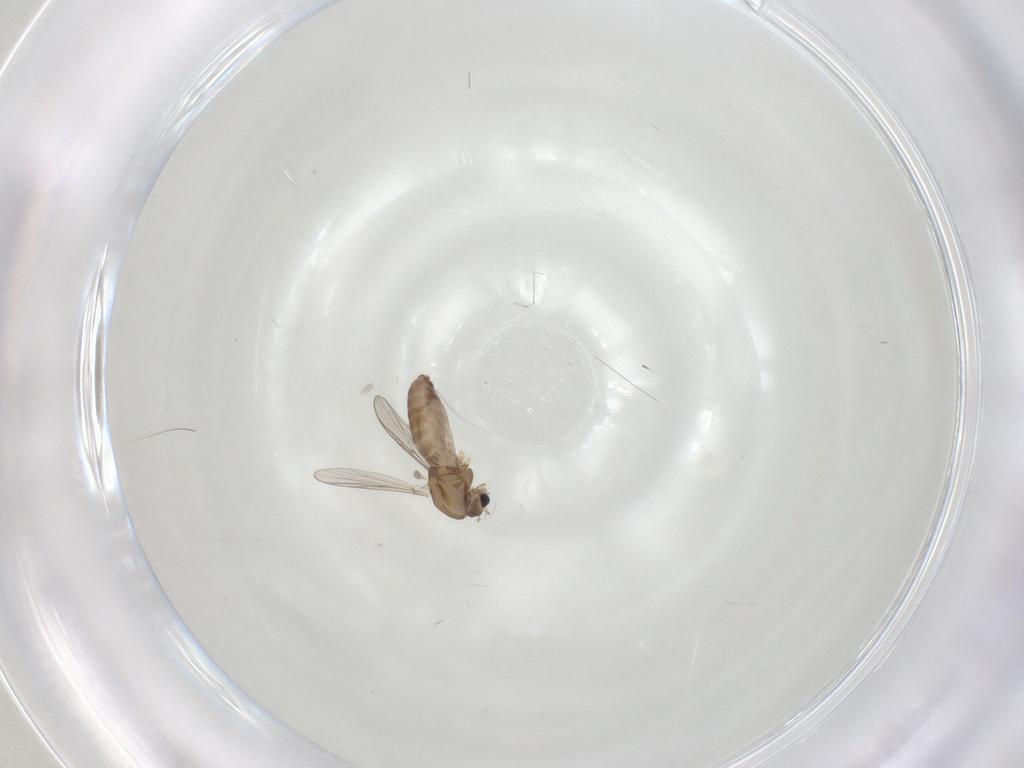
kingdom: Animalia
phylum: Arthropoda
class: Insecta
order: Diptera
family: Chironomidae
